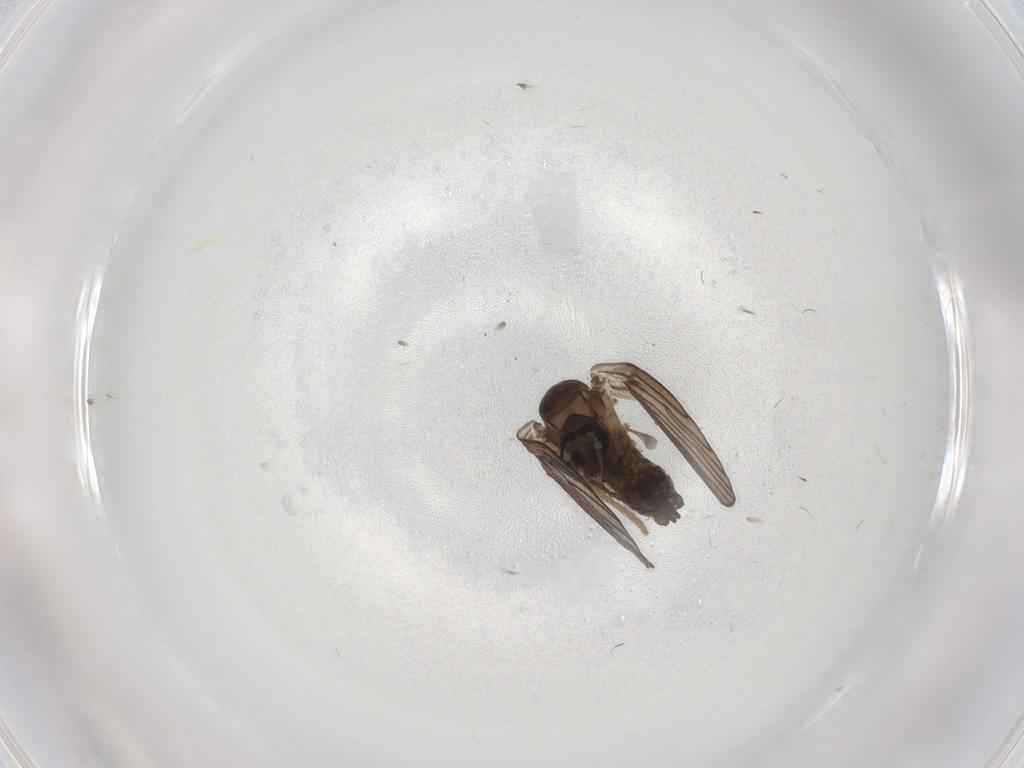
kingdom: Animalia
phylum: Arthropoda
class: Insecta
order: Diptera
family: Psychodidae
